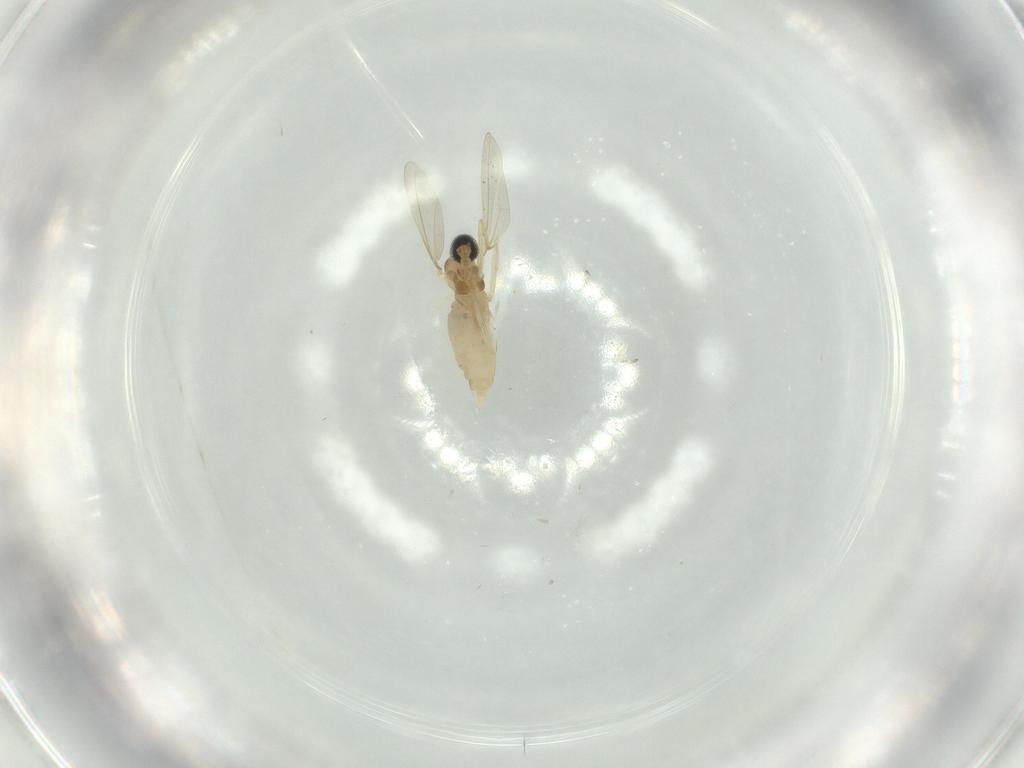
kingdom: Animalia
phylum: Arthropoda
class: Insecta
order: Diptera
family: Cecidomyiidae
